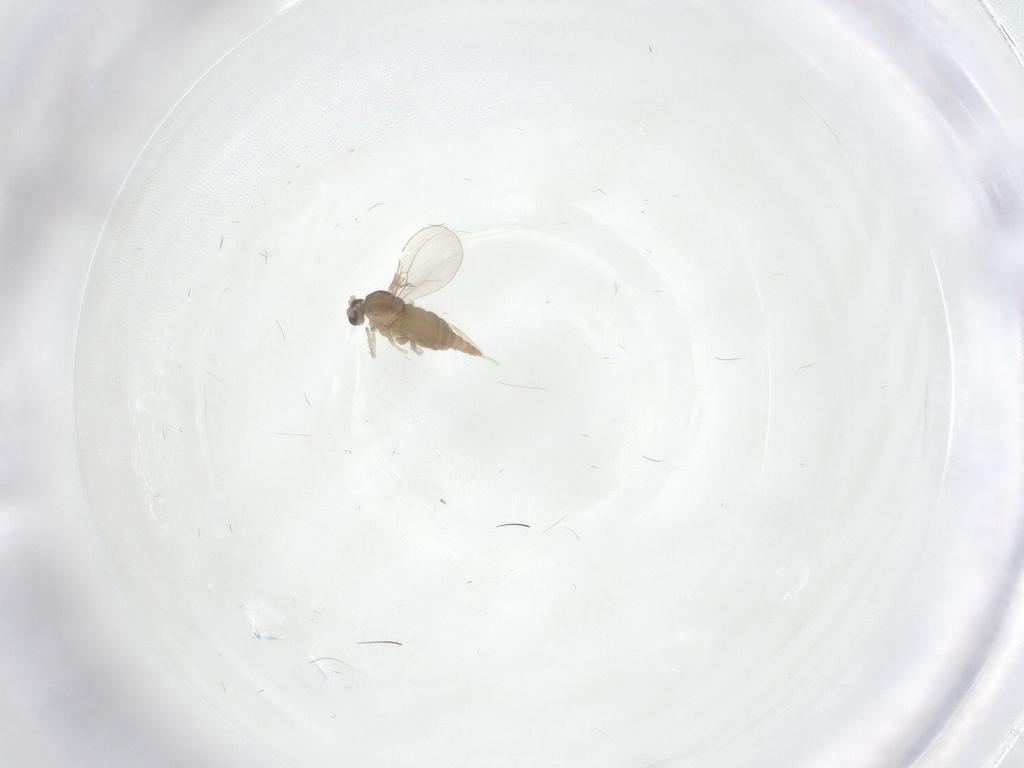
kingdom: Animalia
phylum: Arthropoda
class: Insecta
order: Diptera
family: Cecidomyiidae
